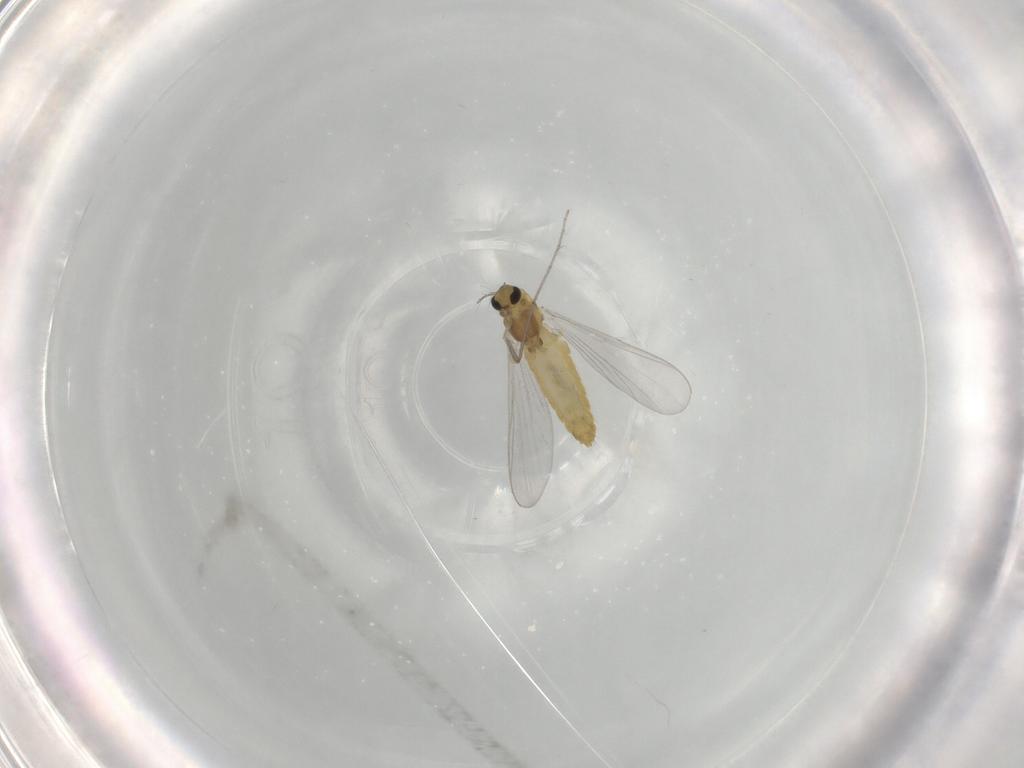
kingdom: Animalia
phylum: Arthropoda
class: Insecta
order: Diptera
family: Chironomidae
